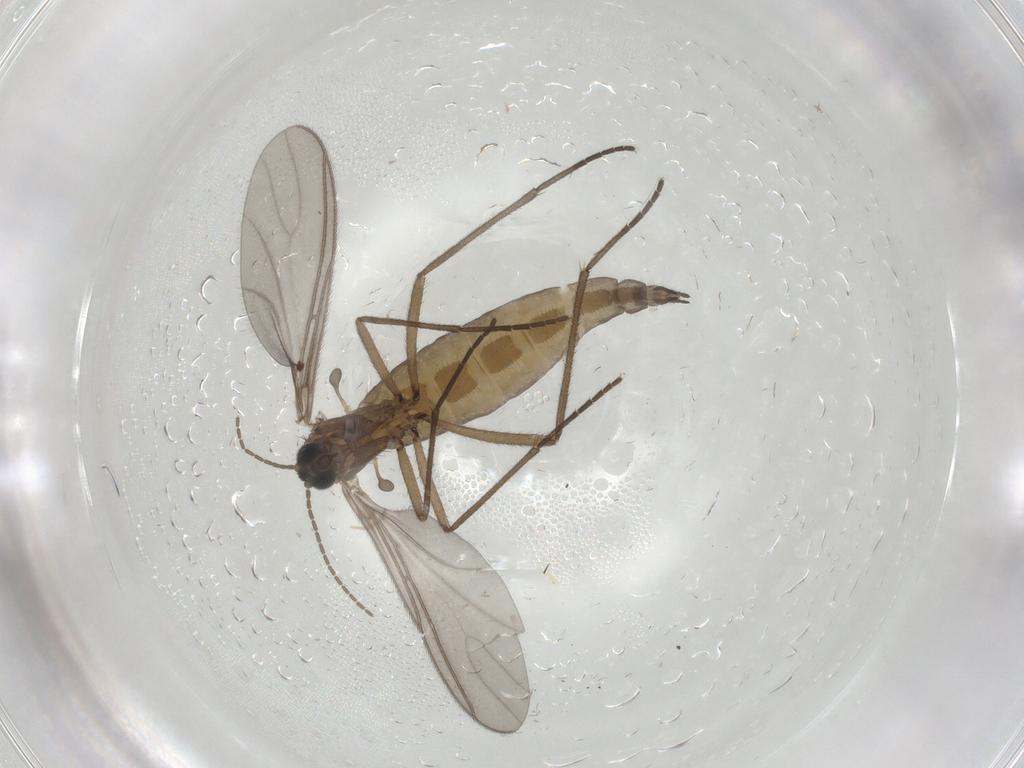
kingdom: Animalia
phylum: Arthropoda
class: Insecta
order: Diptera
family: Sciaridae
